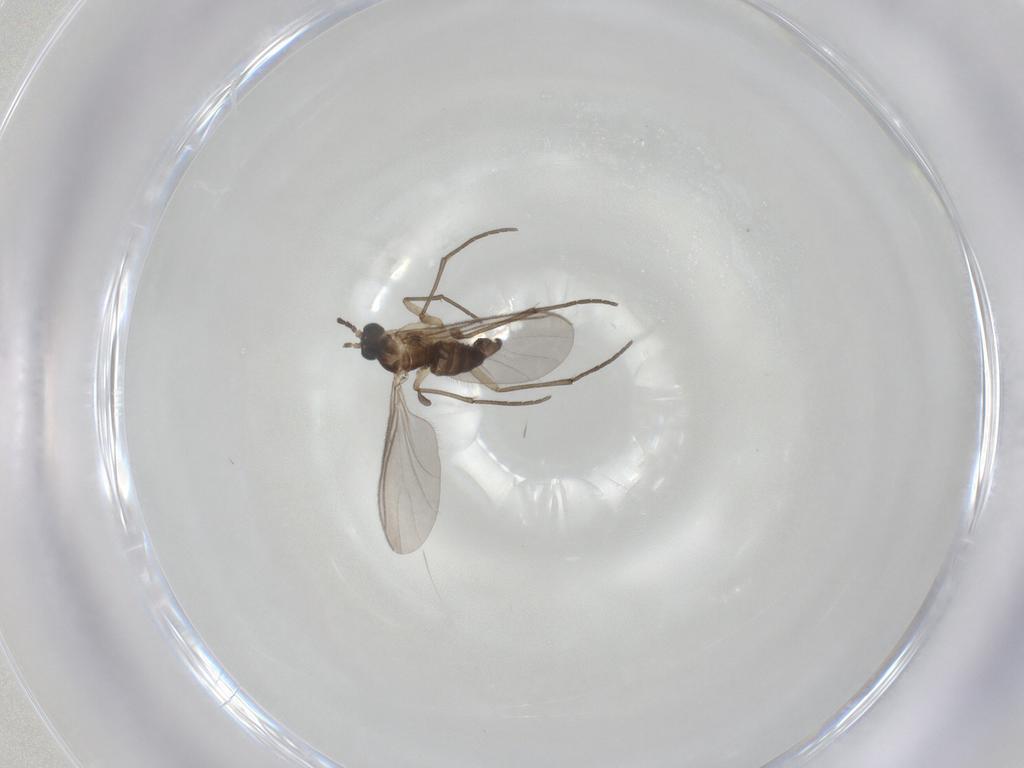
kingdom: Animalia
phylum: Arthropoda
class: Insecta
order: Diptera
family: Sciaridae
